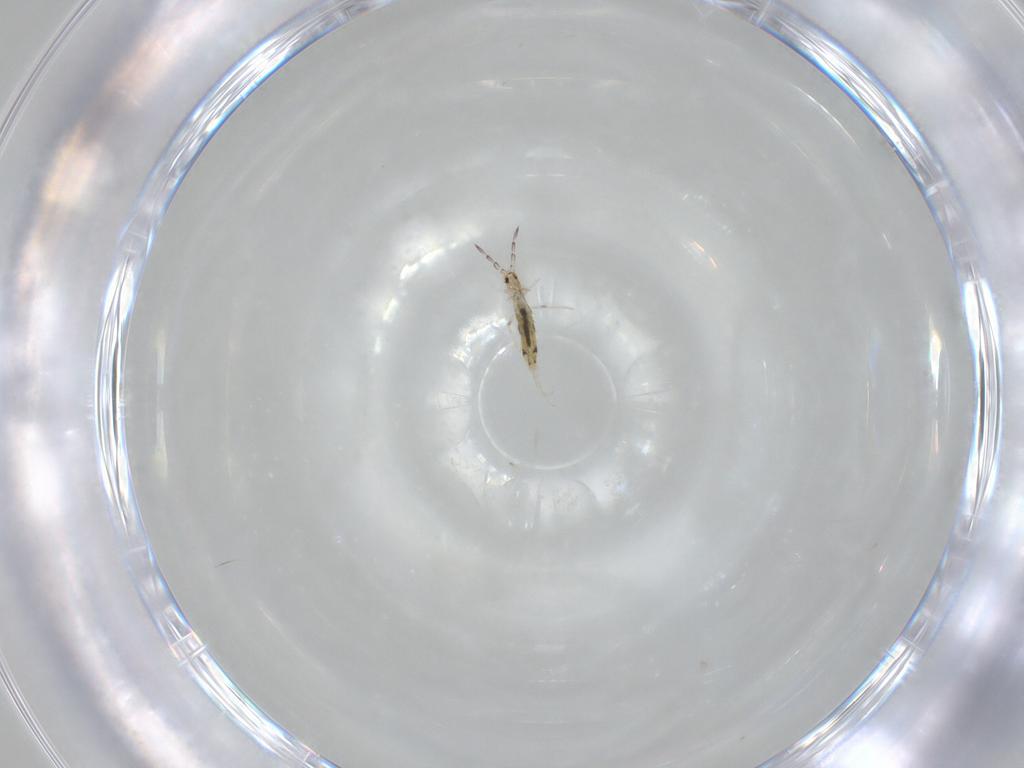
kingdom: Animalia
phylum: Arthropoda
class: Collembola
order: Entomobryomorpha
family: Entomobryidae
